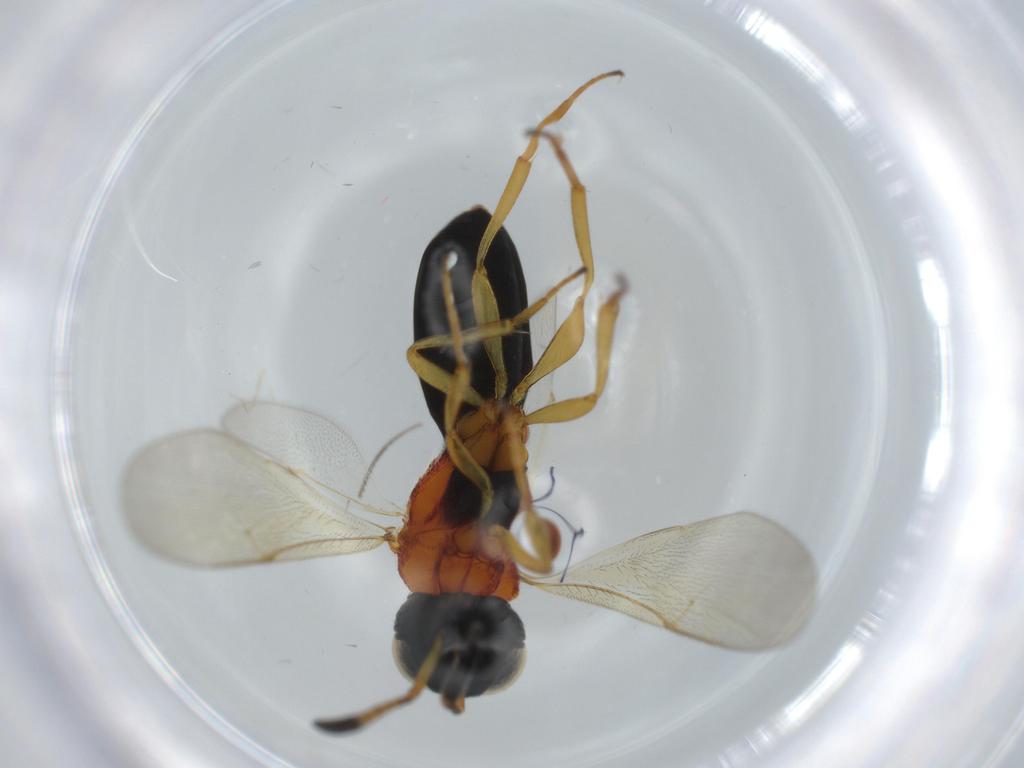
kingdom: Animalia
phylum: Arthropoda
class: Insecta
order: Hymenoptera
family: Scelionidae
